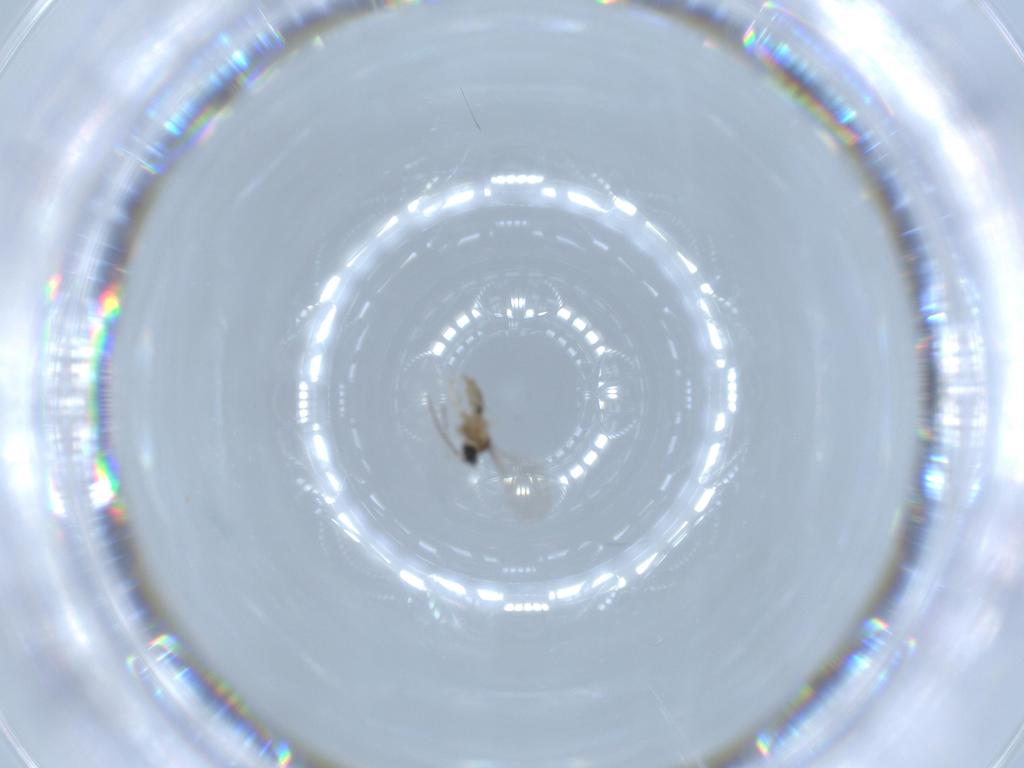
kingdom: Animalia
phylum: Arthropoda
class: Insecta
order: Diptera
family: Cecidomyiidae
